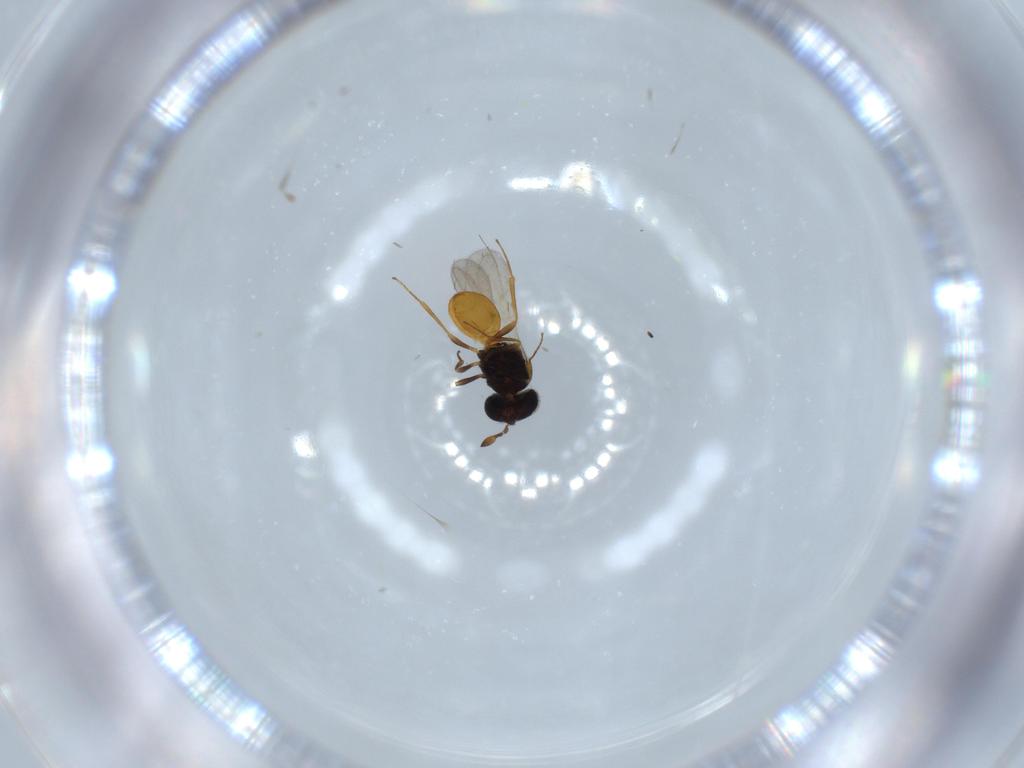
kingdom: Animalia
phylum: Arthropoda
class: Insecta
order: Hymenoptera
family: Scelionidae
